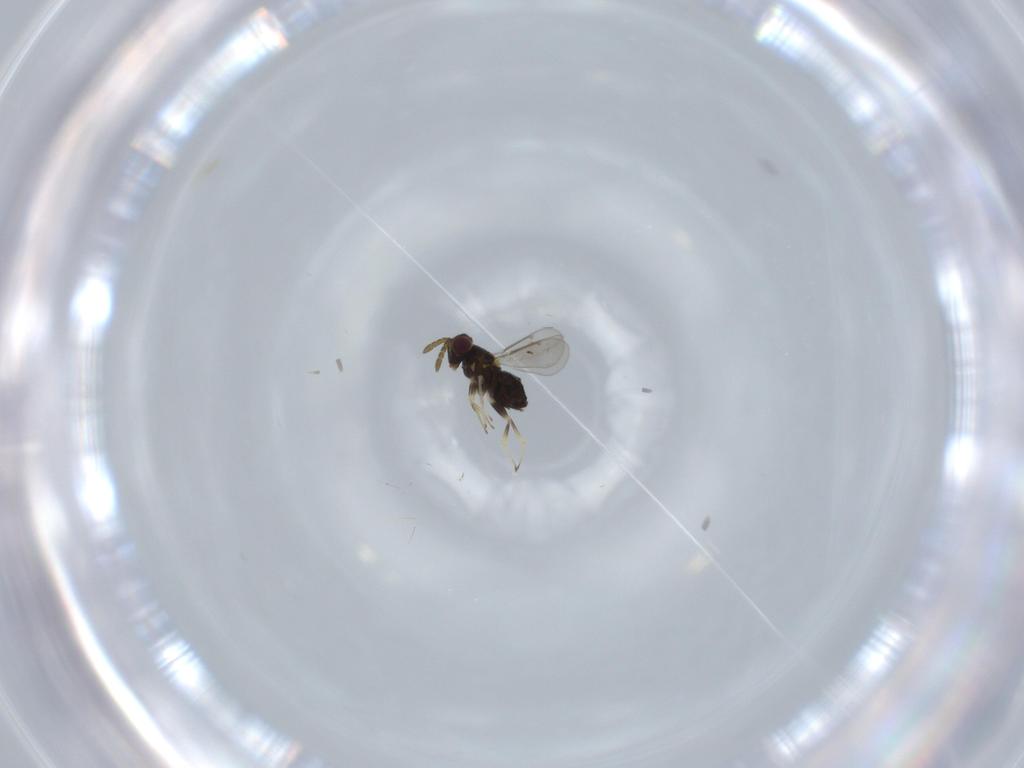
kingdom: Animalia
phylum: Arthropoda
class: Insecta
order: Hymenoptera
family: Aphelinidae
